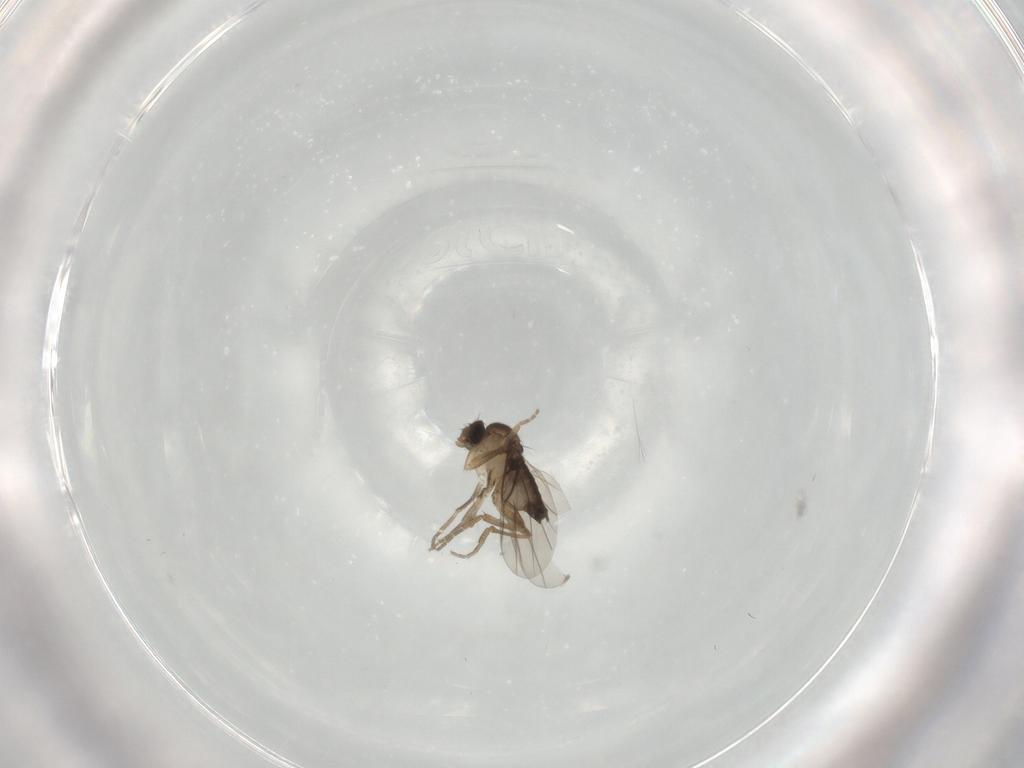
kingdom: Animalia
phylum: Arthropoda
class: Insecta
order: Diptera
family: Phoridae
